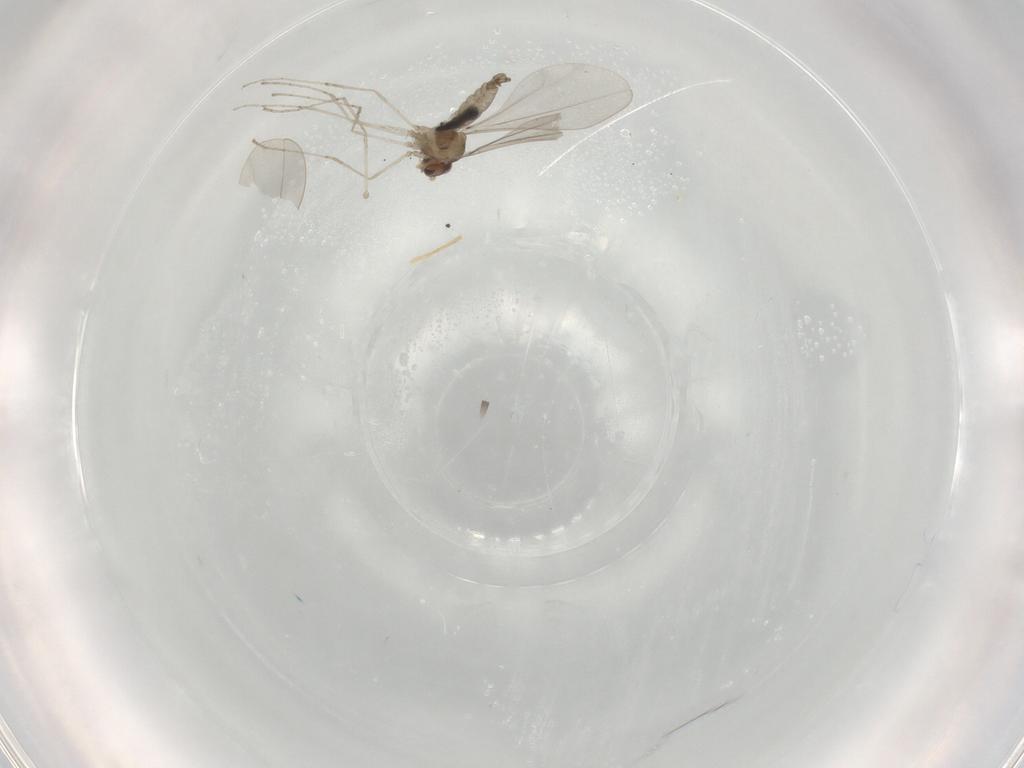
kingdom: Animalia
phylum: Arthropoda
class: Insecta
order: Diptera
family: Cecidomyiidae
